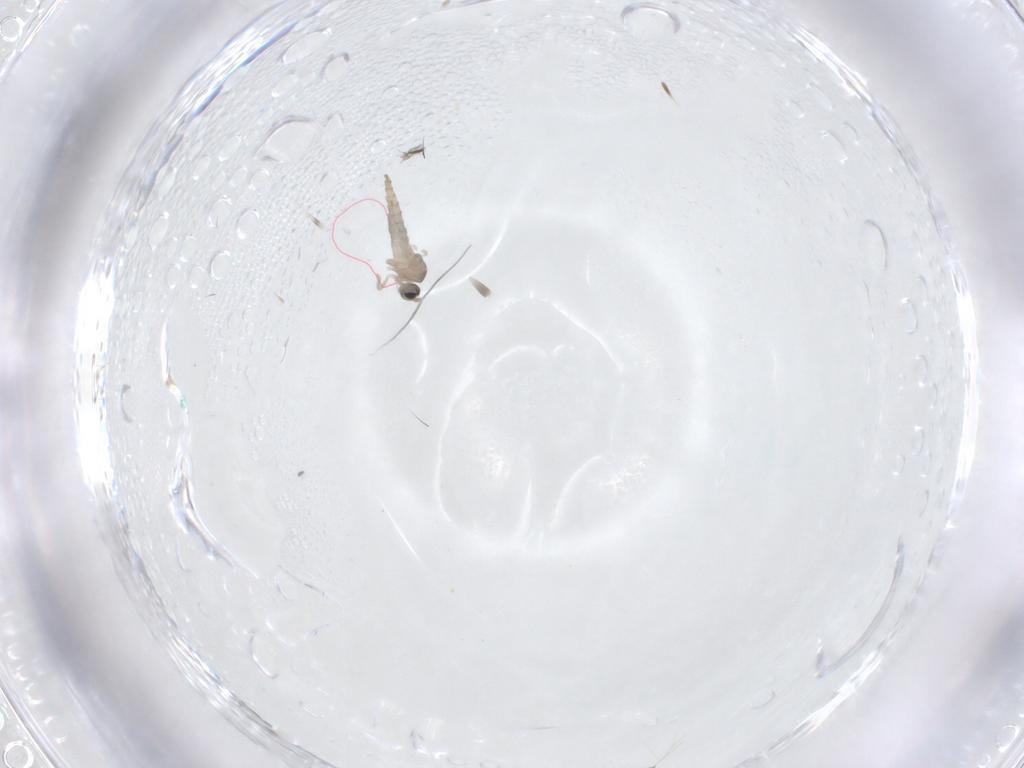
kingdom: Animalia
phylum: Arthropoda
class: Insecta
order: Diptera
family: Cecidomyiidae
